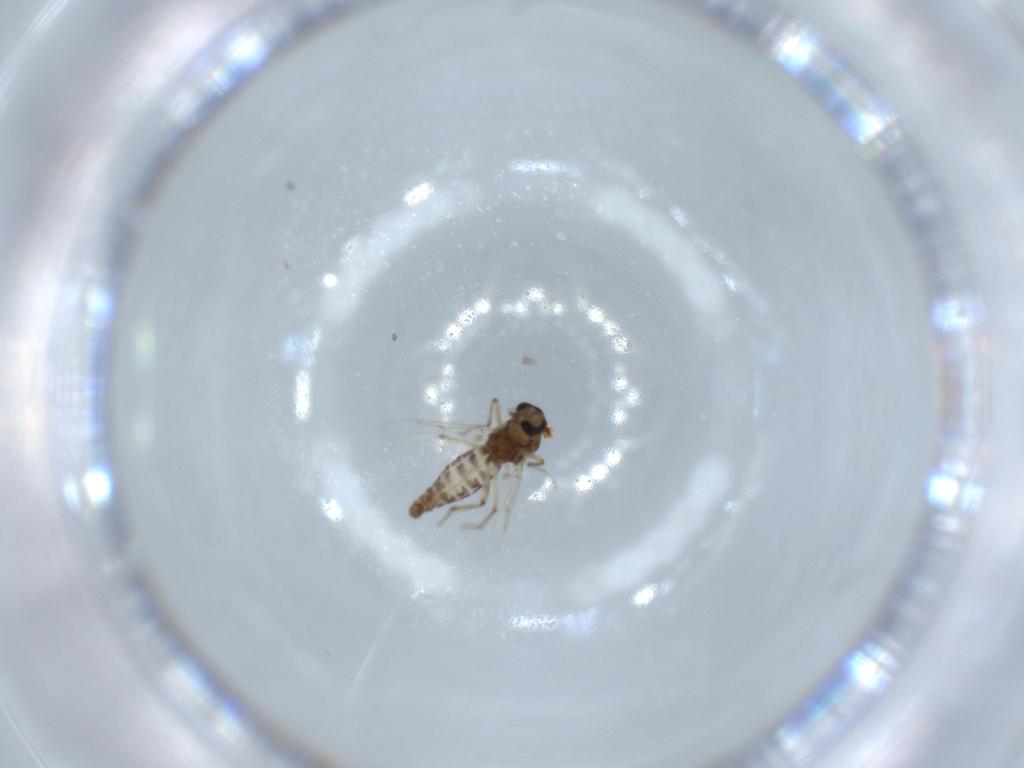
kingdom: Animalia
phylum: Arthropoda
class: Insecta
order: Diptera
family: Ceratopogonidae
